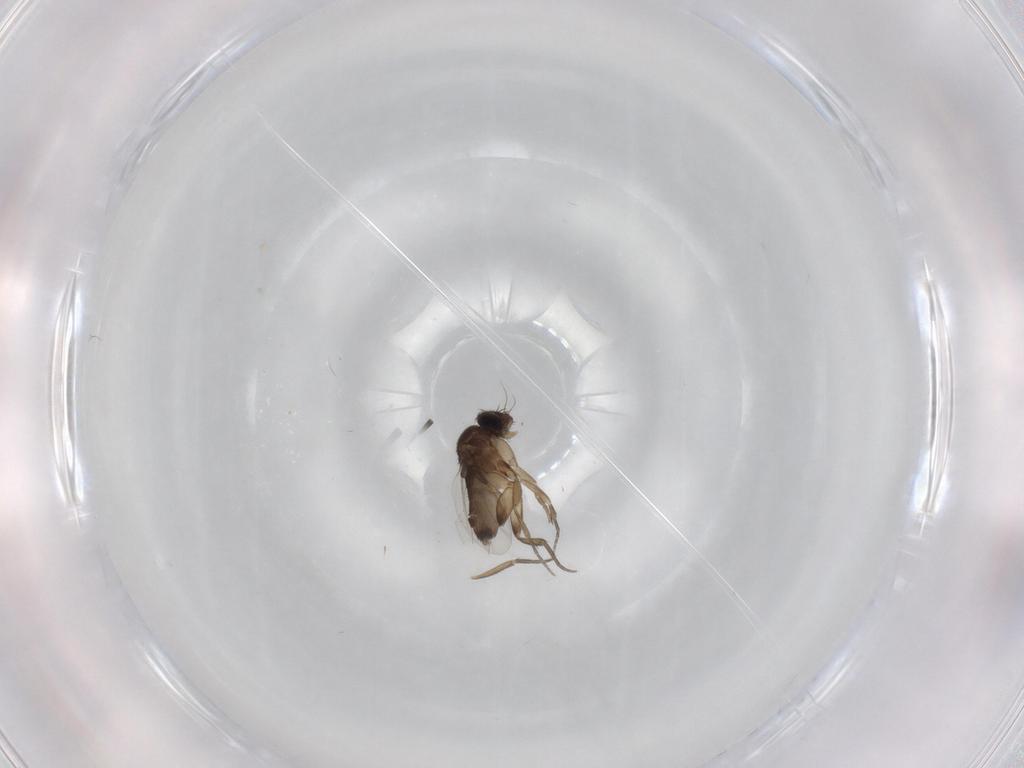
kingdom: Animalia
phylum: Arthropoda
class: Insecta
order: Diptera
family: Phoridae
